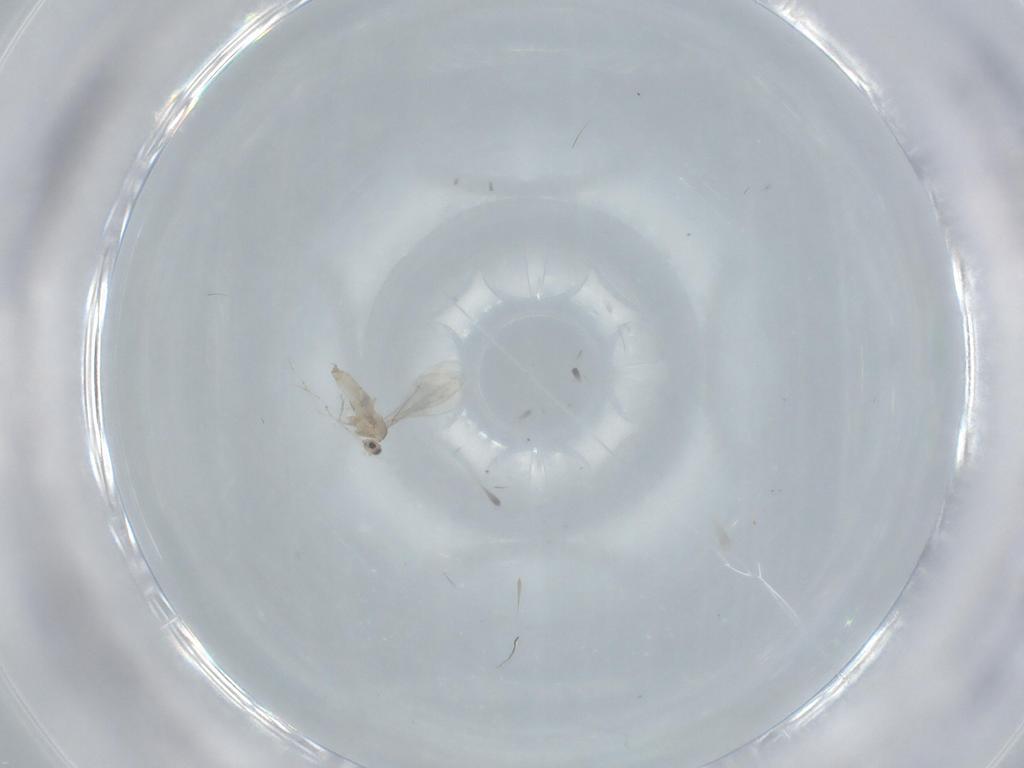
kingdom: Animalia
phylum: Arthropoda
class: Insecta
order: Diptera
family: Cecidomyiidae
